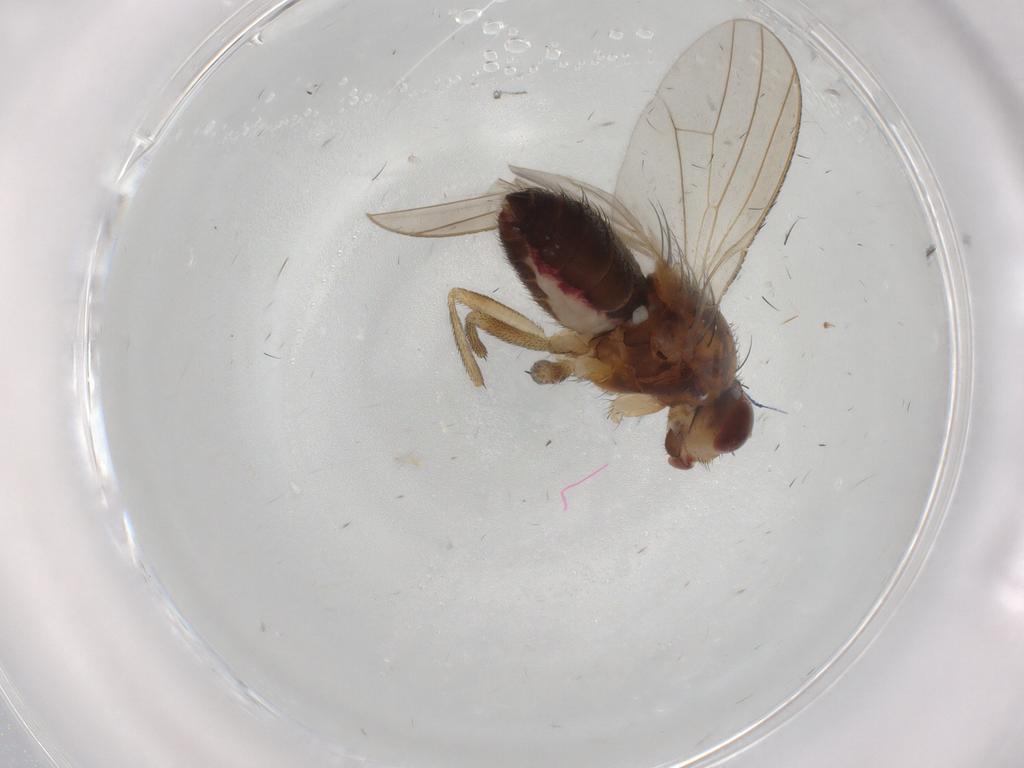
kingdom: Animalia
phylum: Arthropoda
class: Insecta
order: Diptera
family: Heleomyzidae
